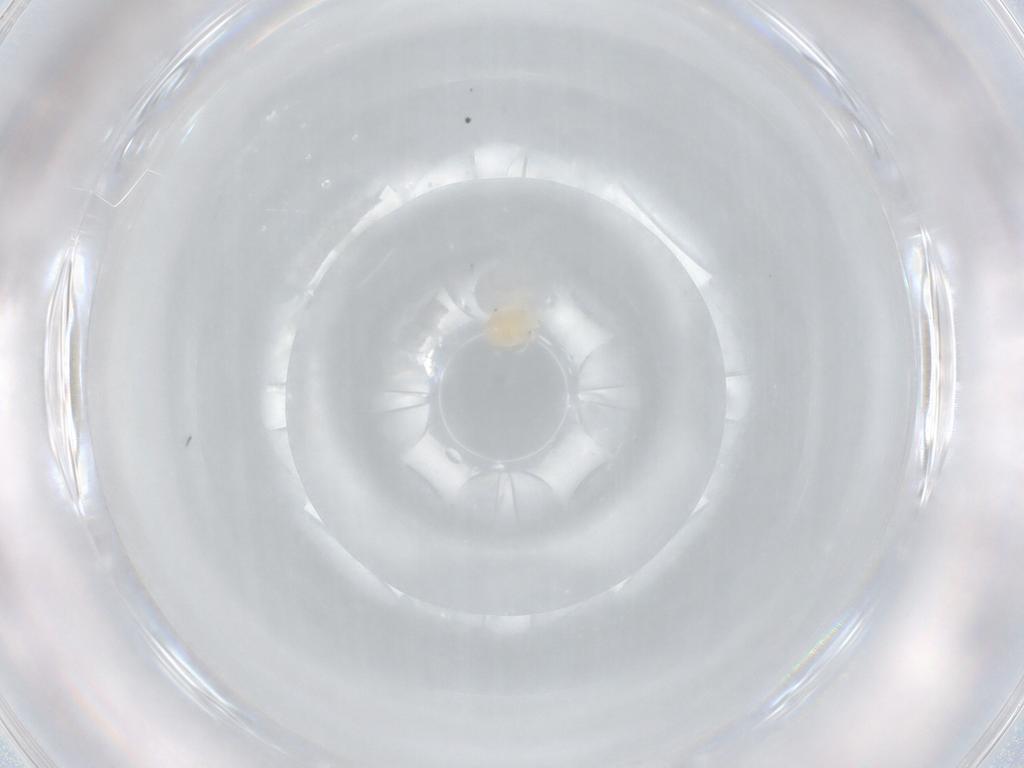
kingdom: Animalia
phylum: Arthropoda
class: Arachnida
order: Trombidiformes
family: Hydryphantidae
